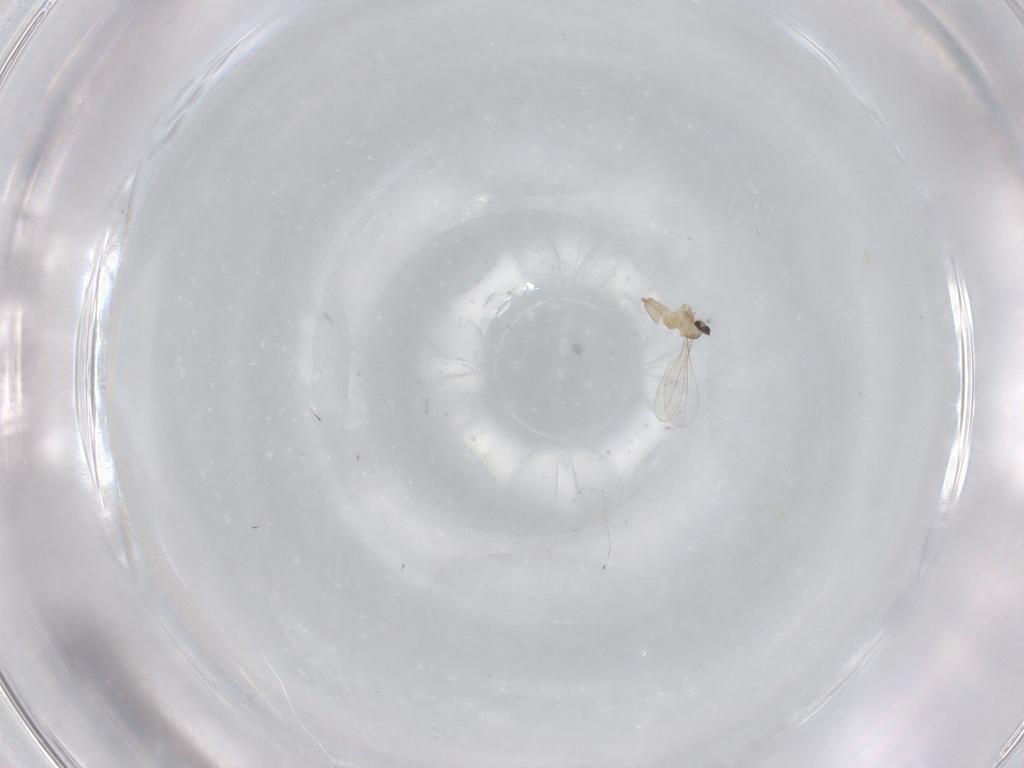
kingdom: Animalia
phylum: Arthropoda
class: Insecta
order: Diptera
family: Cecidomyiidae
